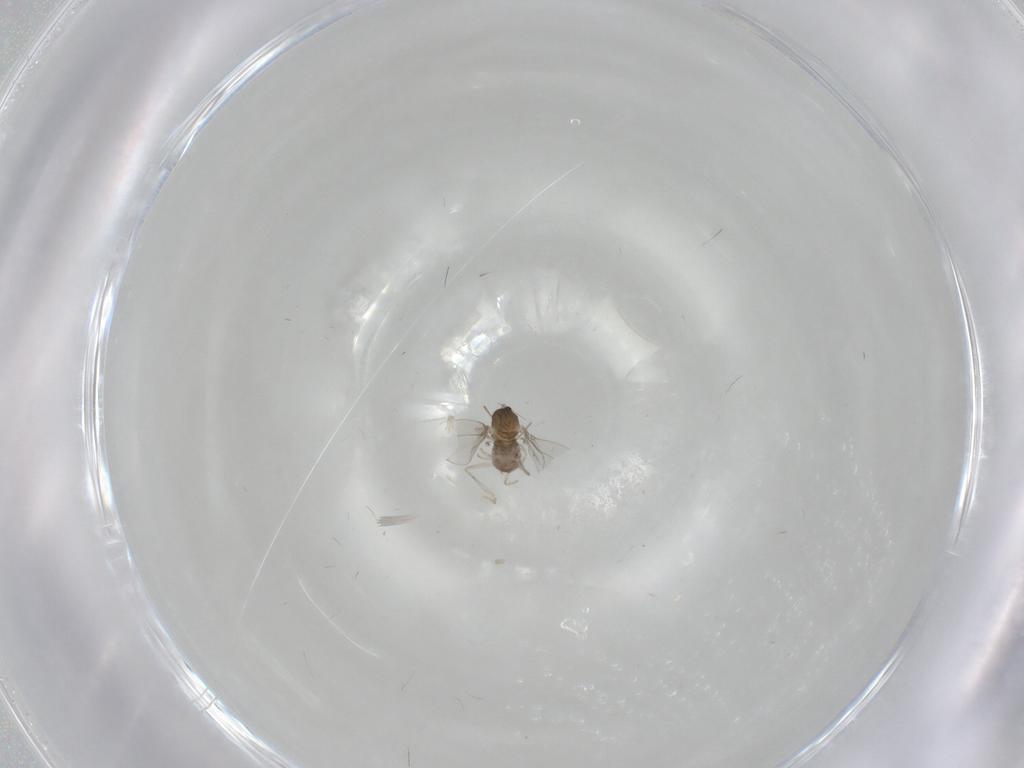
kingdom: Animalia
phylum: Arthropoda
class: Insecta
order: Diptera
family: Cecidomyiidae
